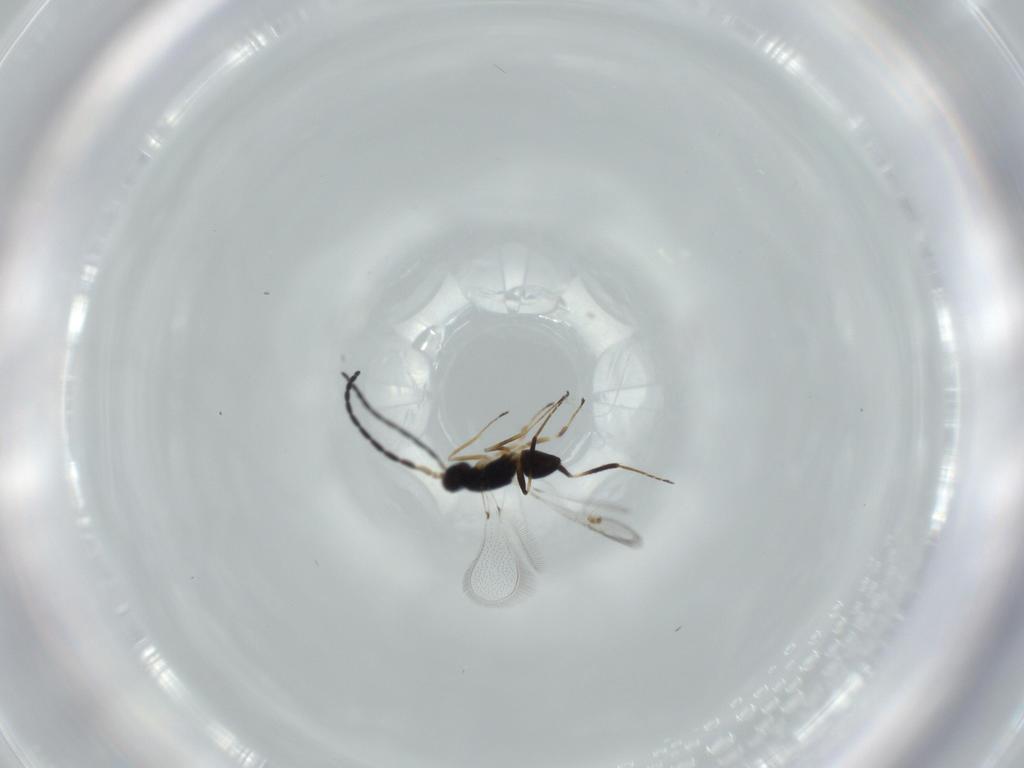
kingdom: Animalia
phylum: Arthropoda
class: Insecta
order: Hymenoptera
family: Mymaridae
